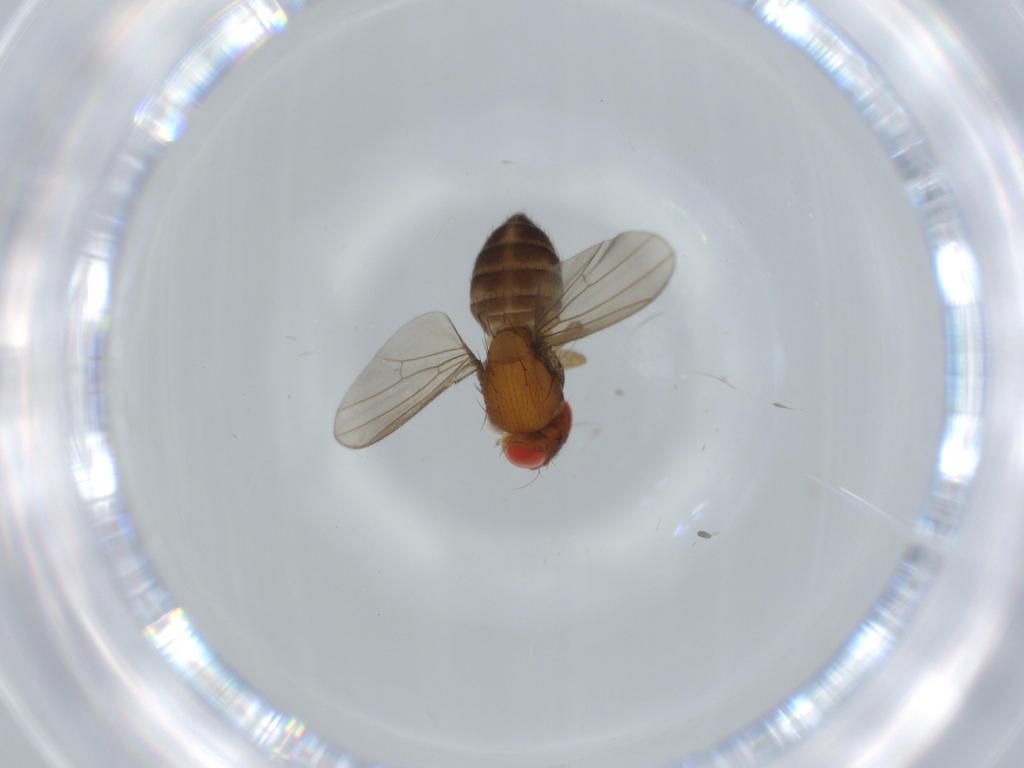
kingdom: Animalia
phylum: Arthropoda
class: Insecta
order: Diptera
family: Drosophilidae
